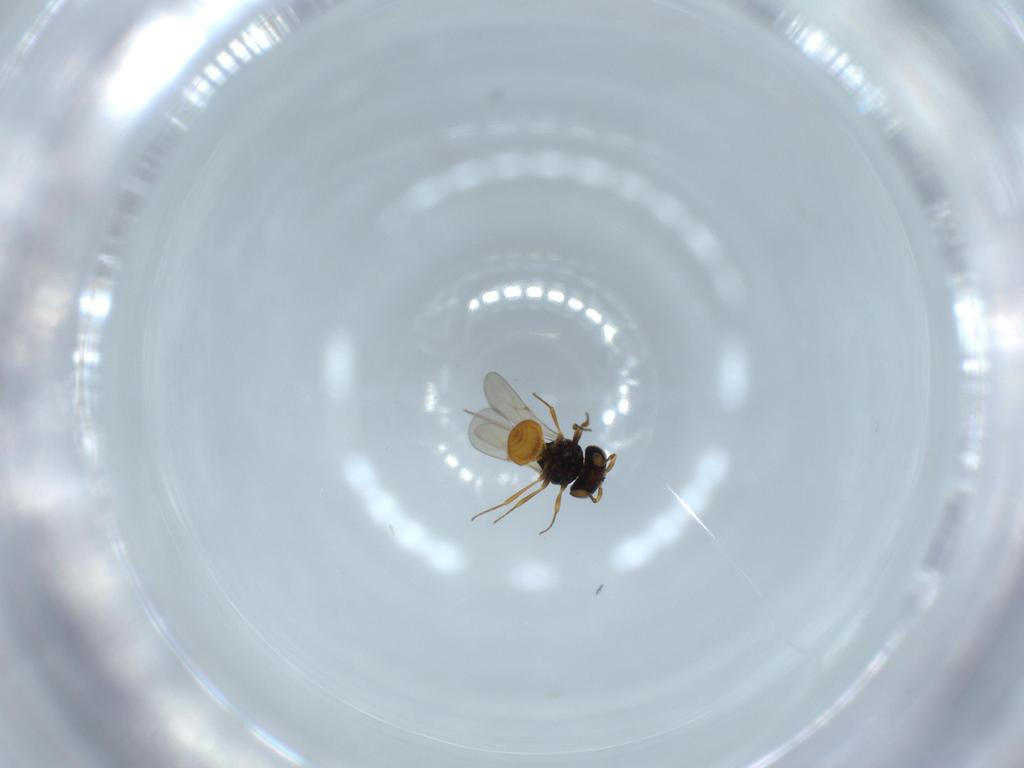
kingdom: Animalia
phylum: Arthropoda
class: Insecta
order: Hymenoptera
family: Scelionidae
